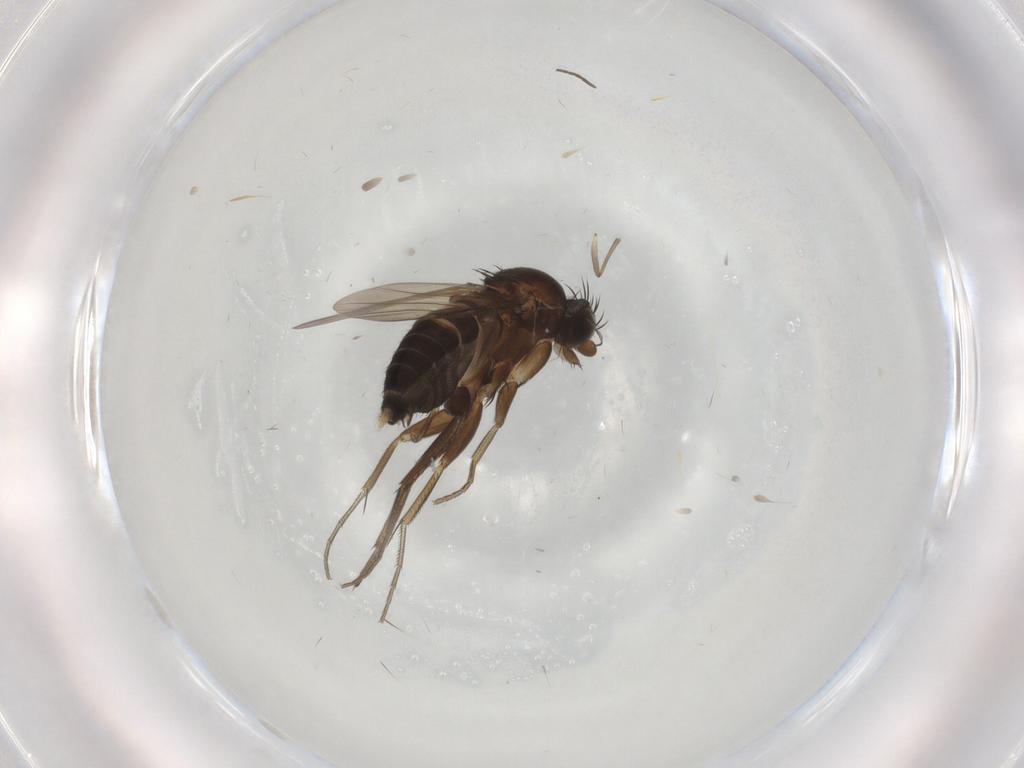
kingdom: Animalia
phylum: Arthropoda
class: Insecta
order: Diptera
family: Phoridae
